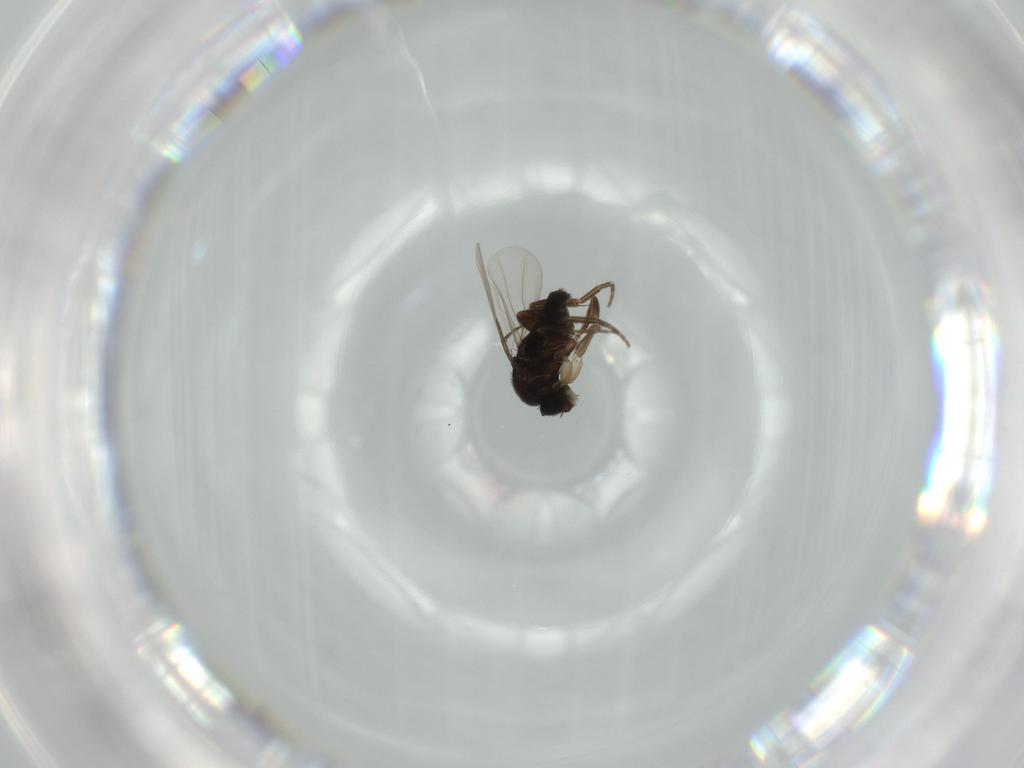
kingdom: Animalia
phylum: Arthropoda
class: Insecta
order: Diptera
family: Phoridae
